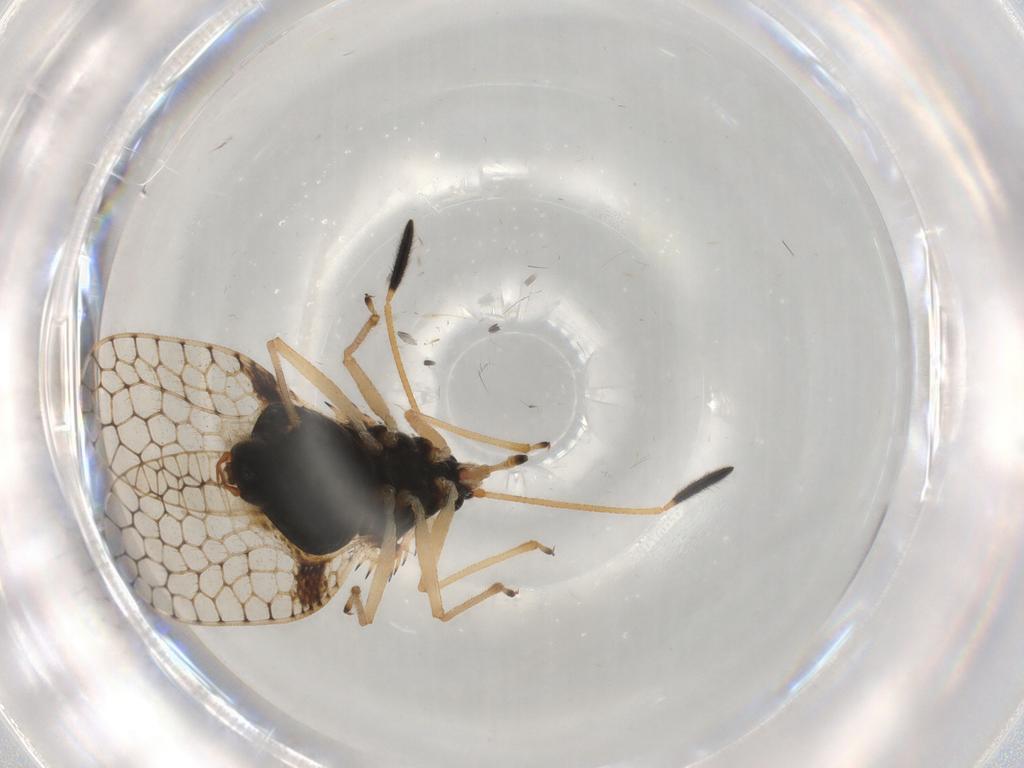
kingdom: Animalia
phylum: Arthropoda
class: Insecta
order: Hemiptera
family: Tingidae
